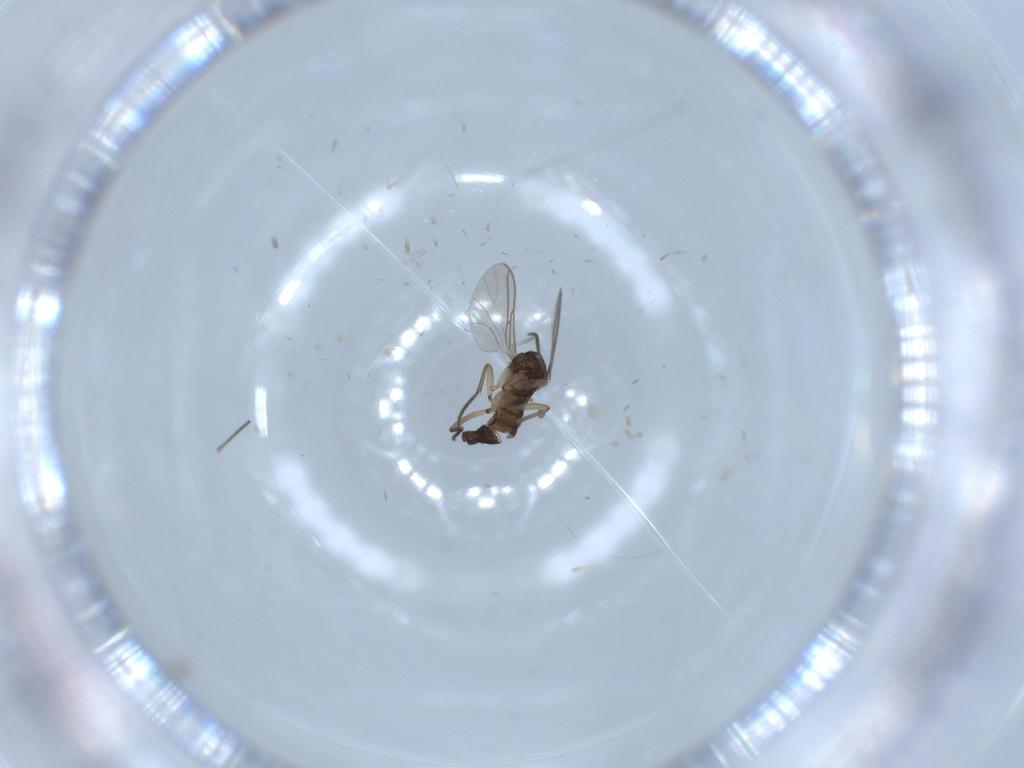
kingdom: Animalia
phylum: Arthropoda
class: Insecta
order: Diptera
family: Sciaridae
